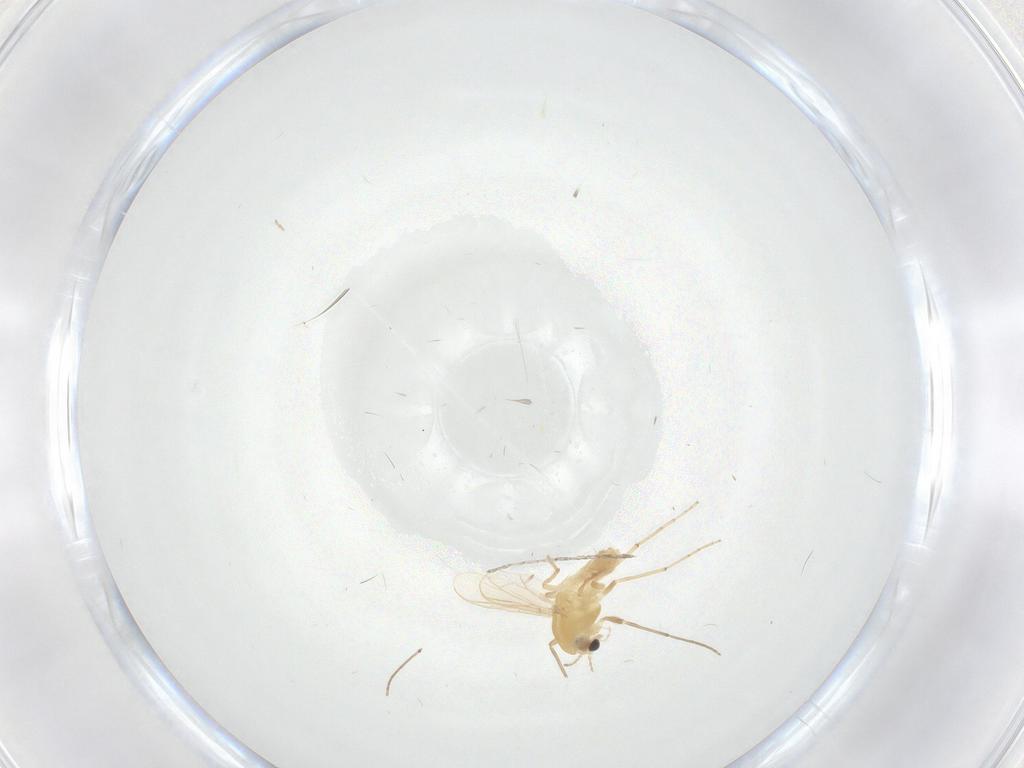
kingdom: Animalia
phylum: Arthropoda
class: Insecta
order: Diptera
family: Chironomidae
